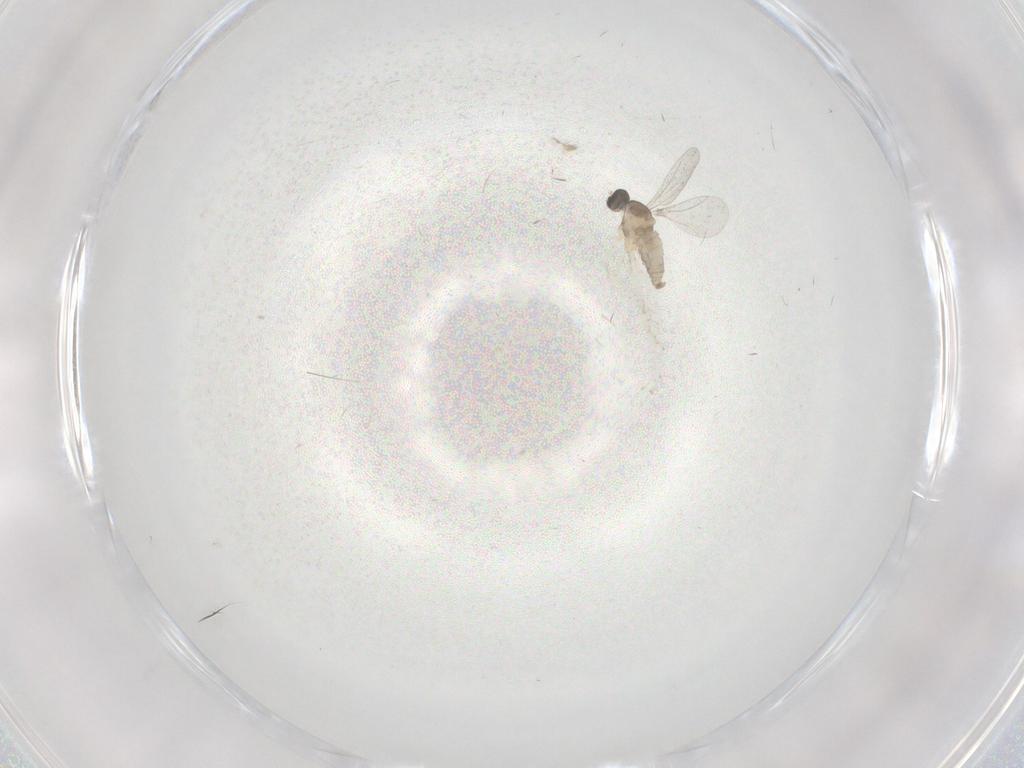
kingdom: Animalia
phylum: Arthropoda
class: Insecta
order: Diptera
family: Cecidomyiidae
